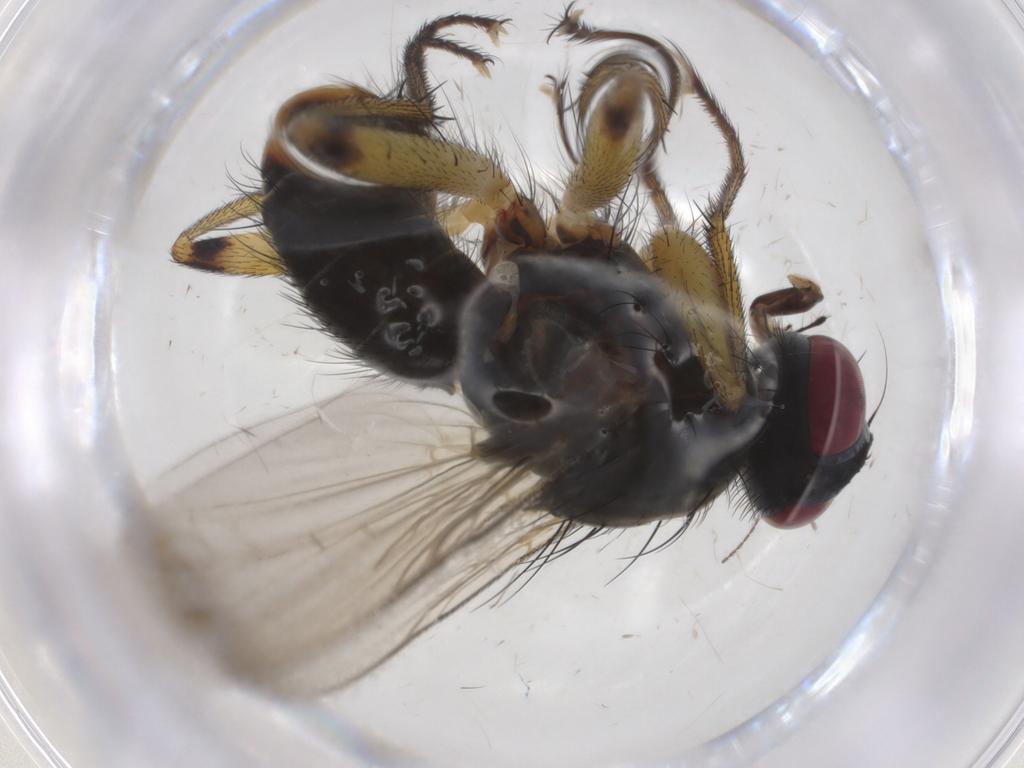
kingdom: Animalia
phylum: Arthropoda
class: Insecta
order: Diptera
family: Muscidae
